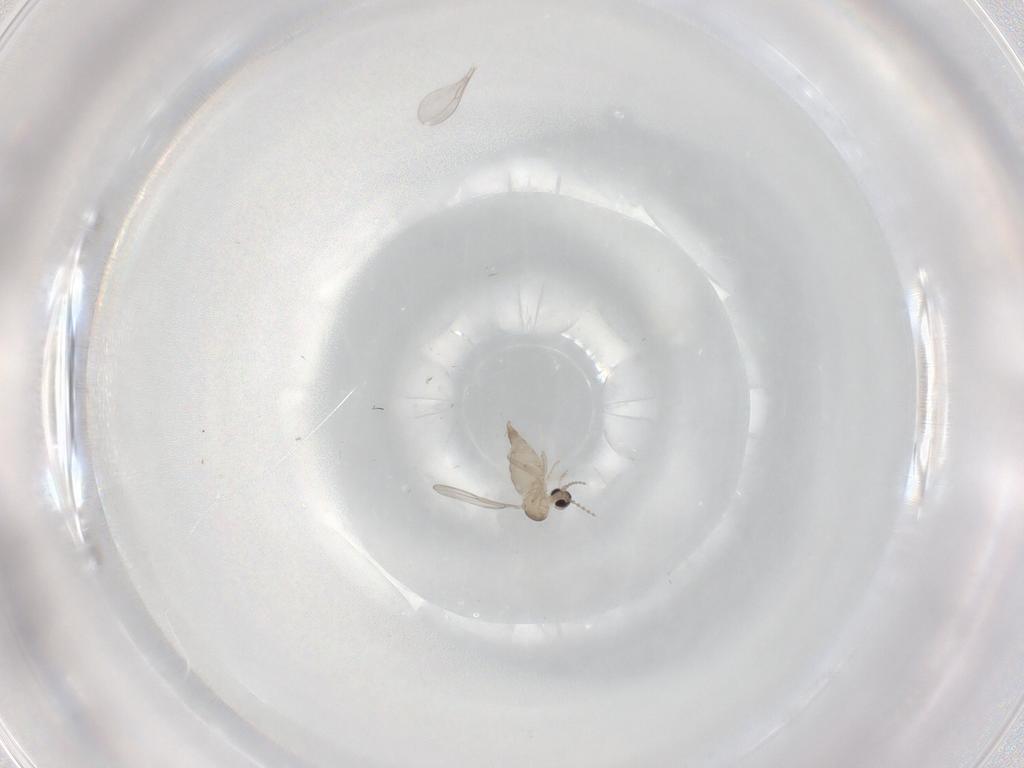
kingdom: Animalia
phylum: Arthropoda
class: Insecta
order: Diptera
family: Cecidomyiidae
